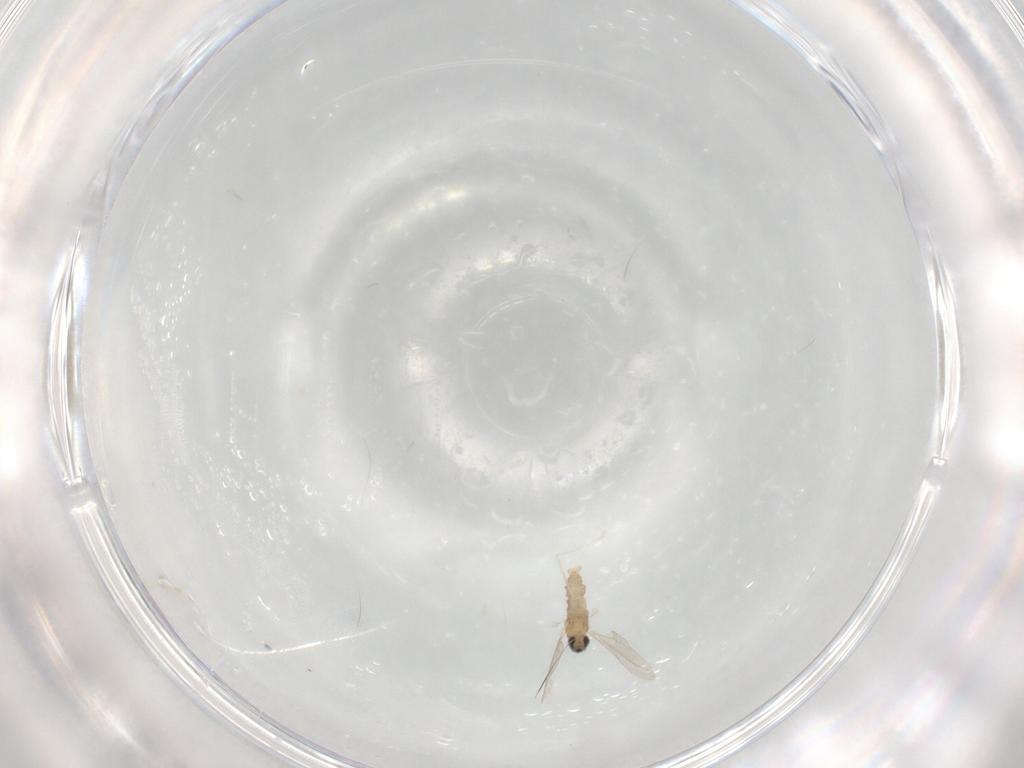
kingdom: Animalia
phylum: Arthropoda
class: Insecta
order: Diptera
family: Cecidomyiidae
